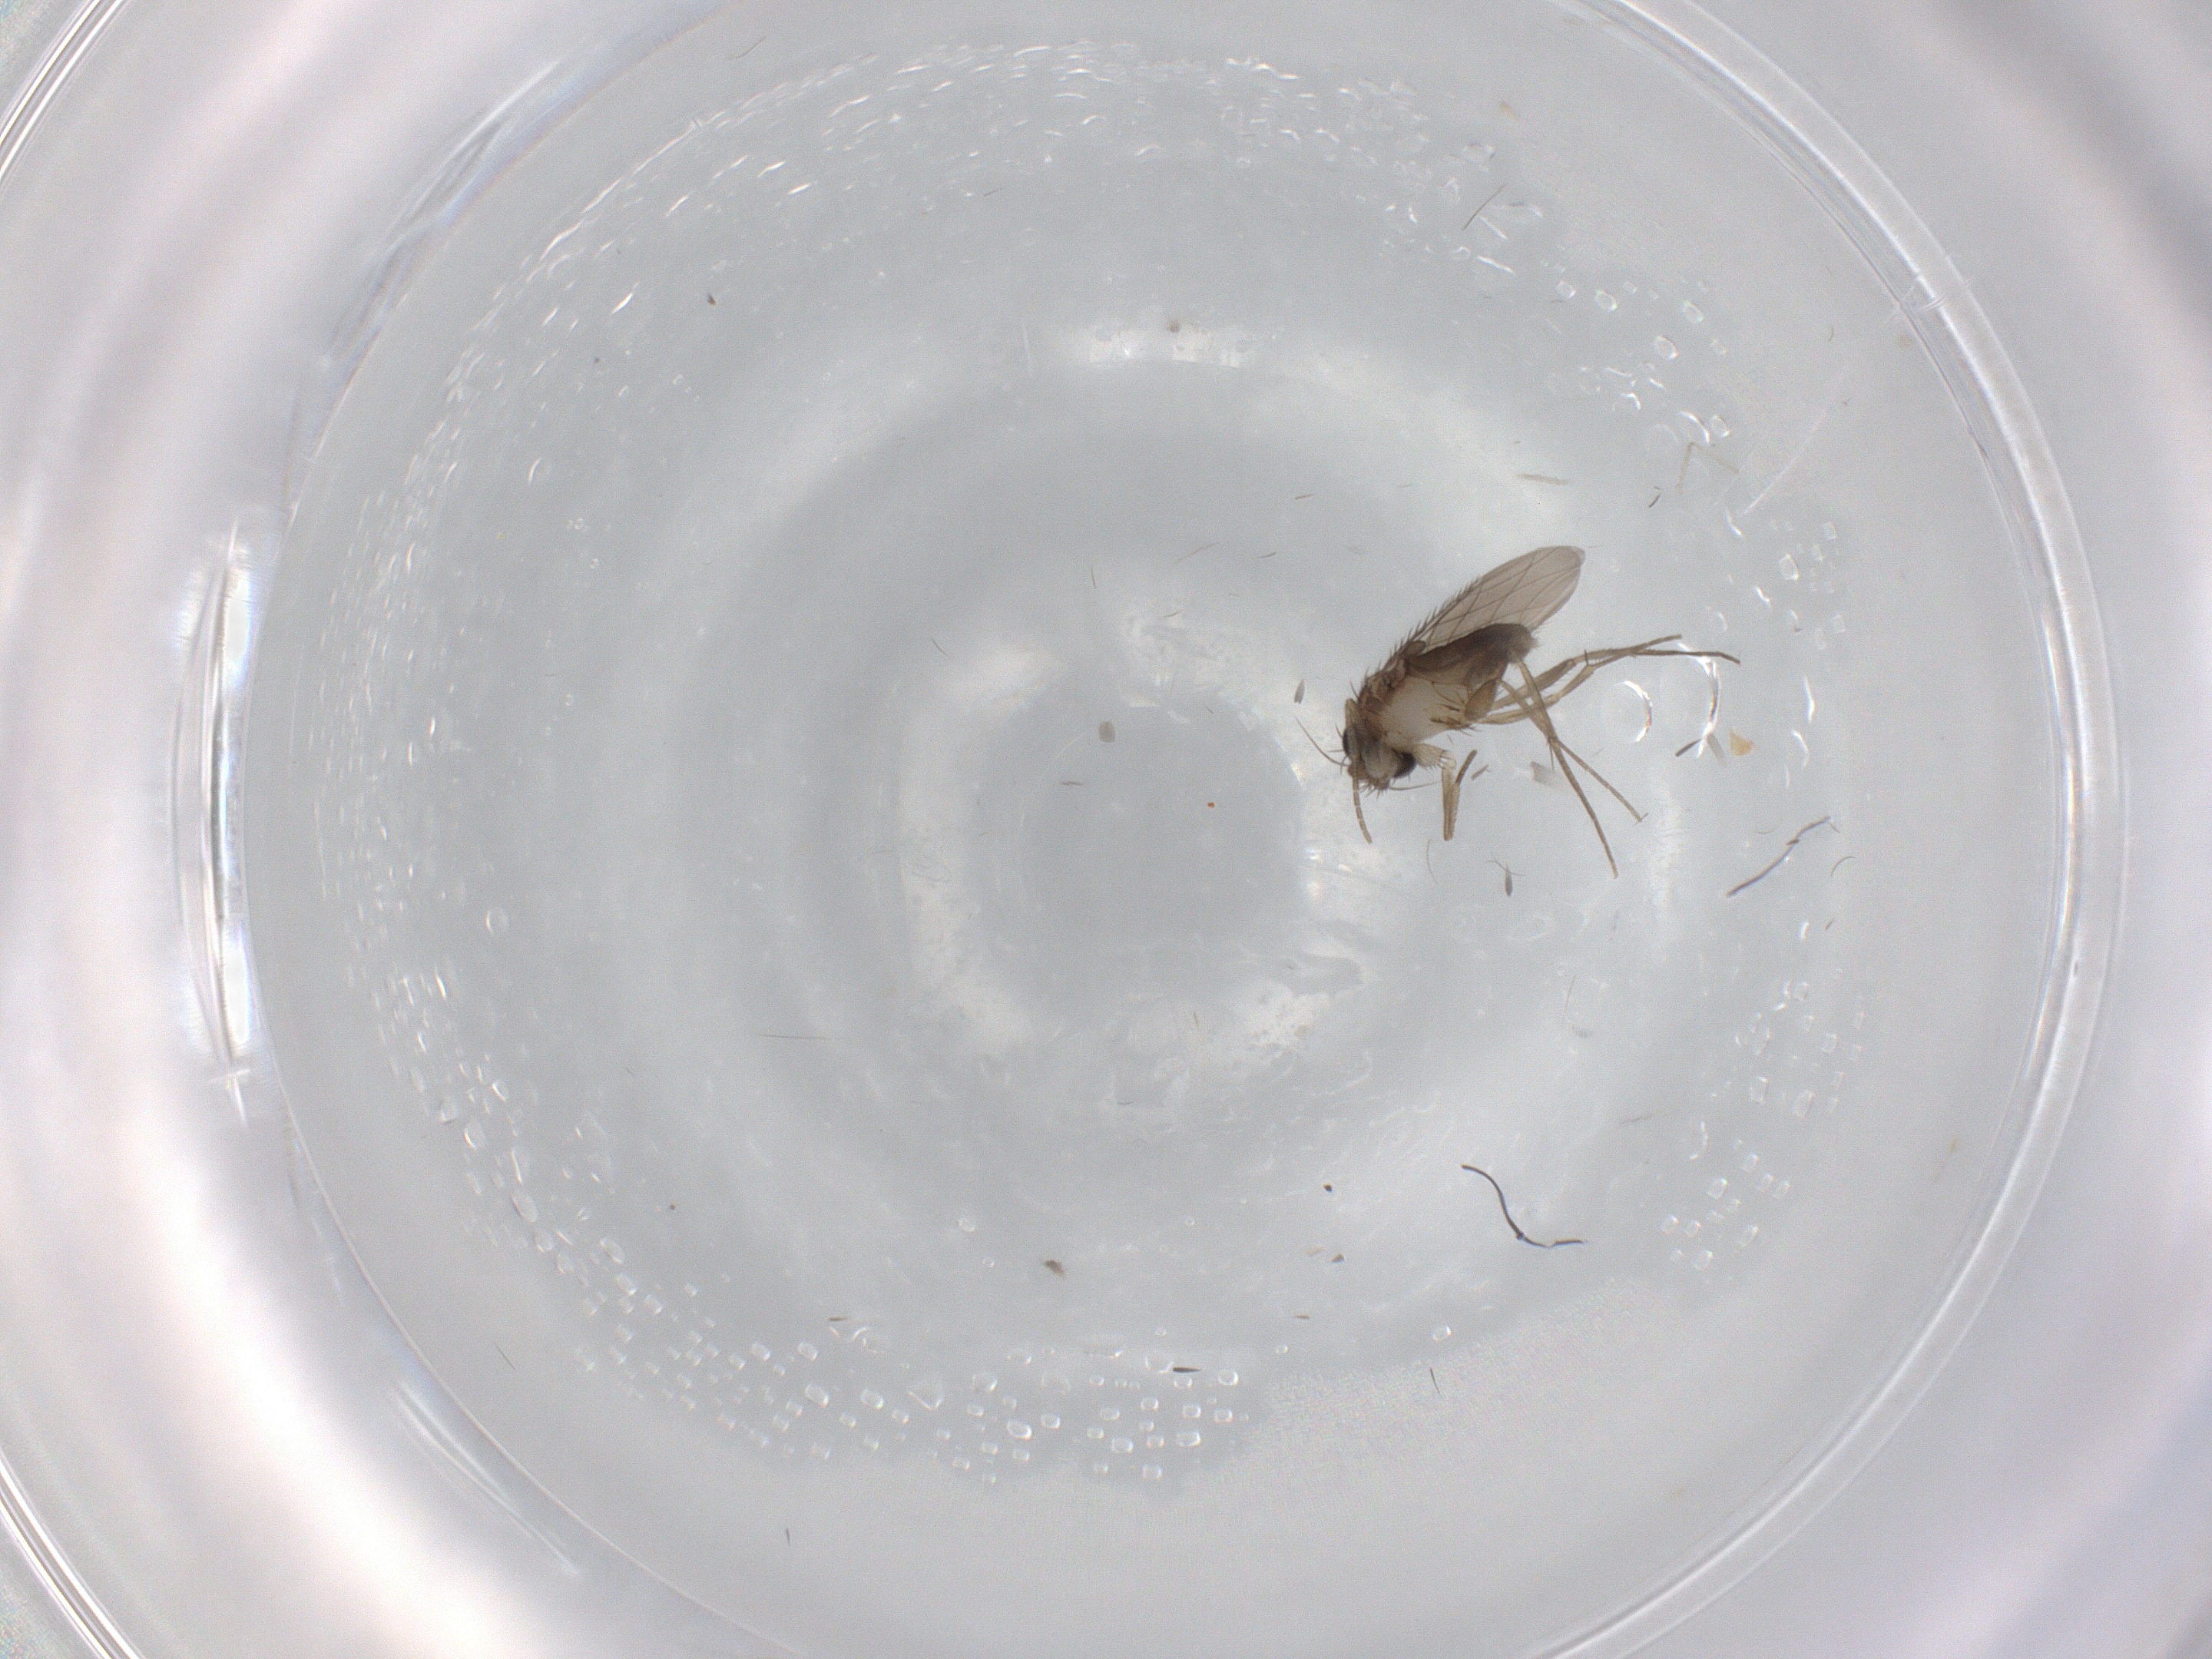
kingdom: Animalia
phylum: Arthropoda
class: Insecta
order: Diptera
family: Phoridae
